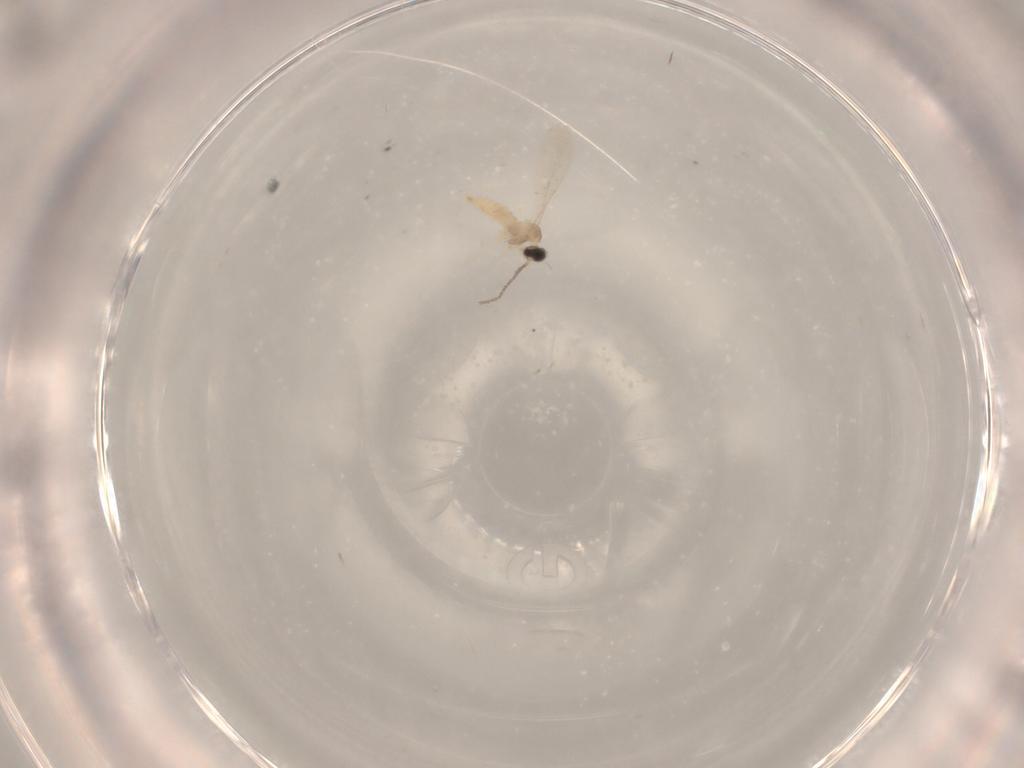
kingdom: Animalia
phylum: Arthropoda
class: Insecta
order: Diptera
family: Cecidomyiidae
